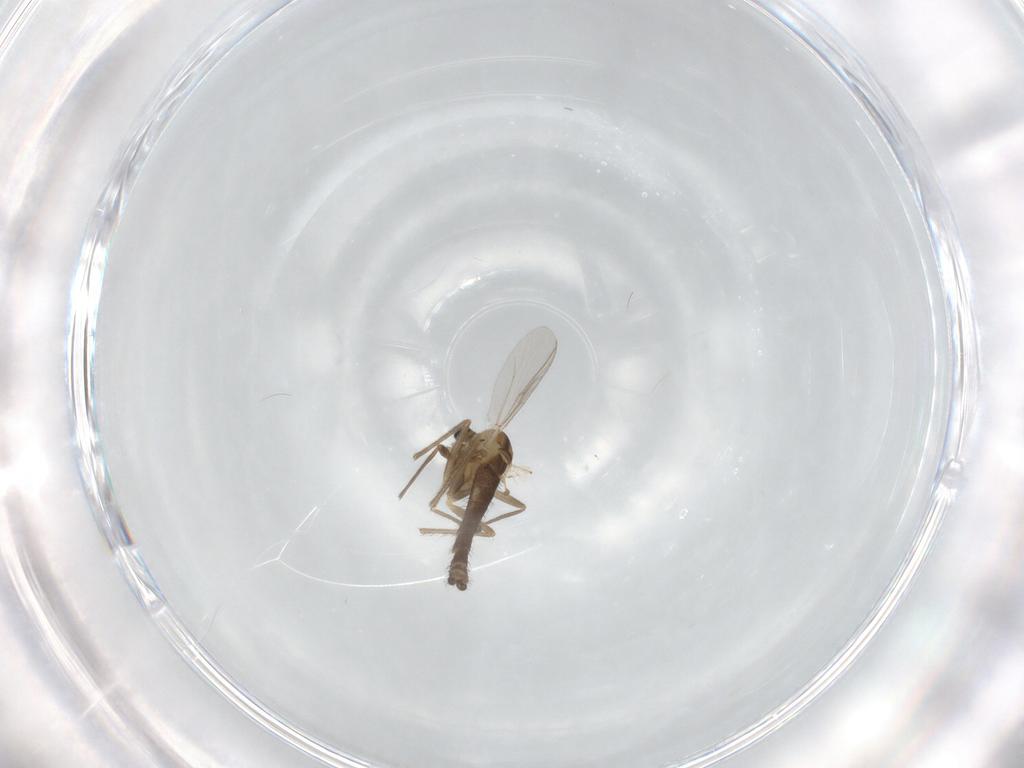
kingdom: Animalia
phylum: Arthropoda
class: Insecta
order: Diptera
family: Chironomidae
